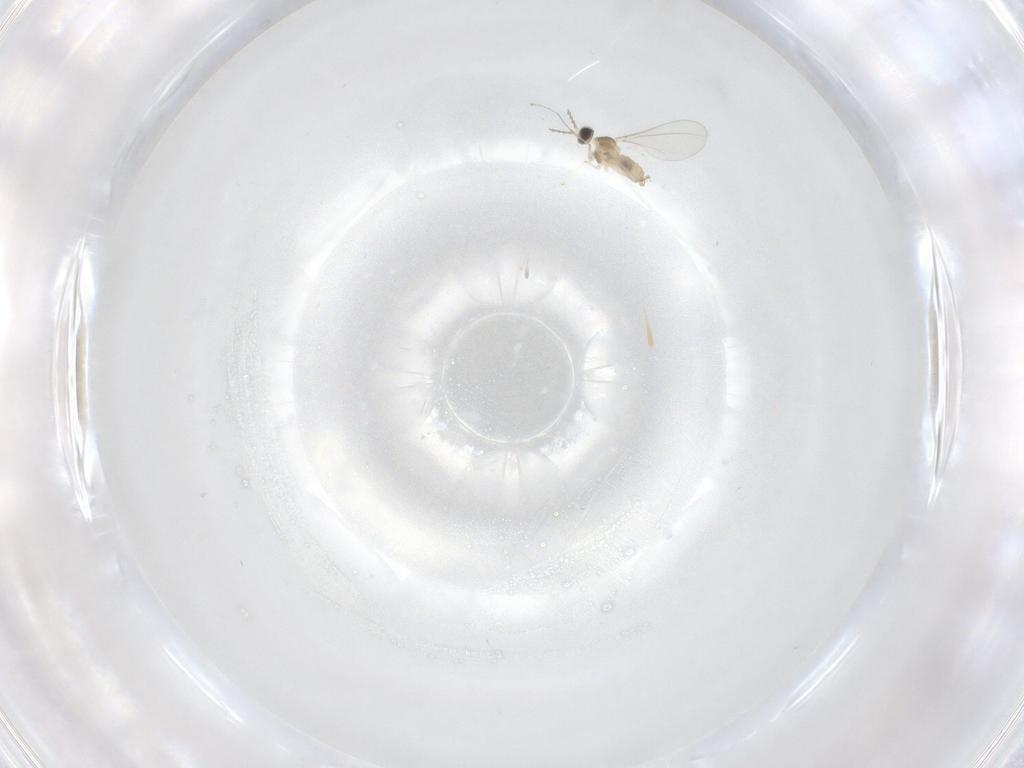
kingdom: Animalia
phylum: Arthropoda
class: Insecta
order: Diptera
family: Cecidomyiidae
